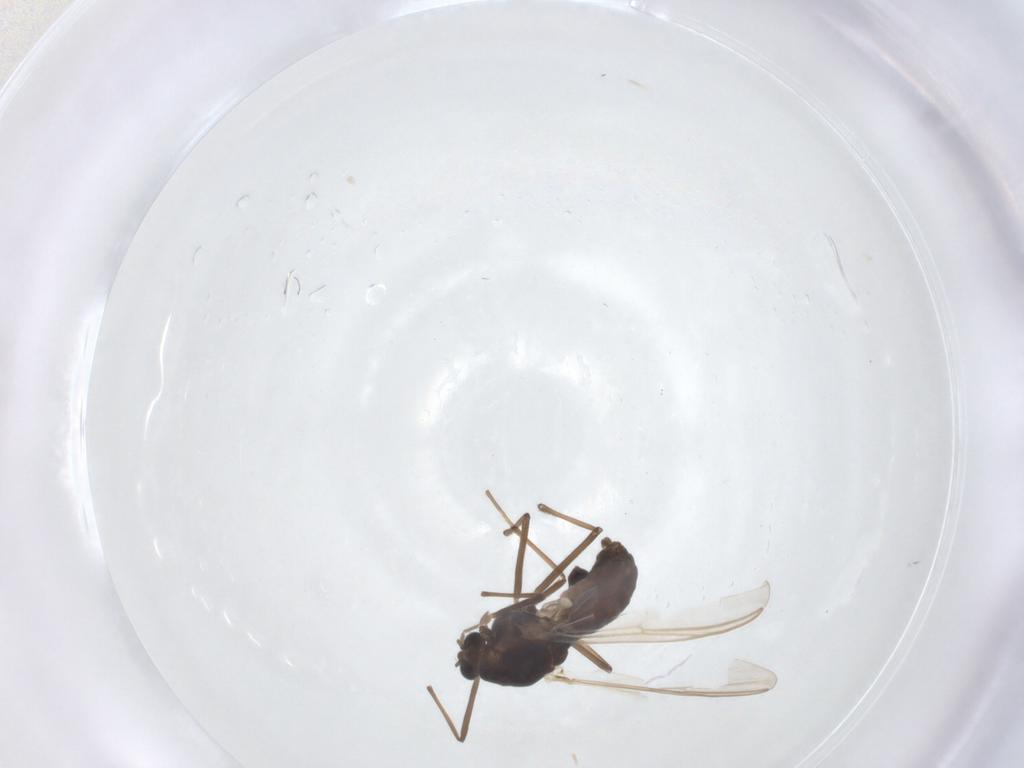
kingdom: Animalia
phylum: Arthropoda
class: Insecta
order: Diptera
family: Chironomidae
